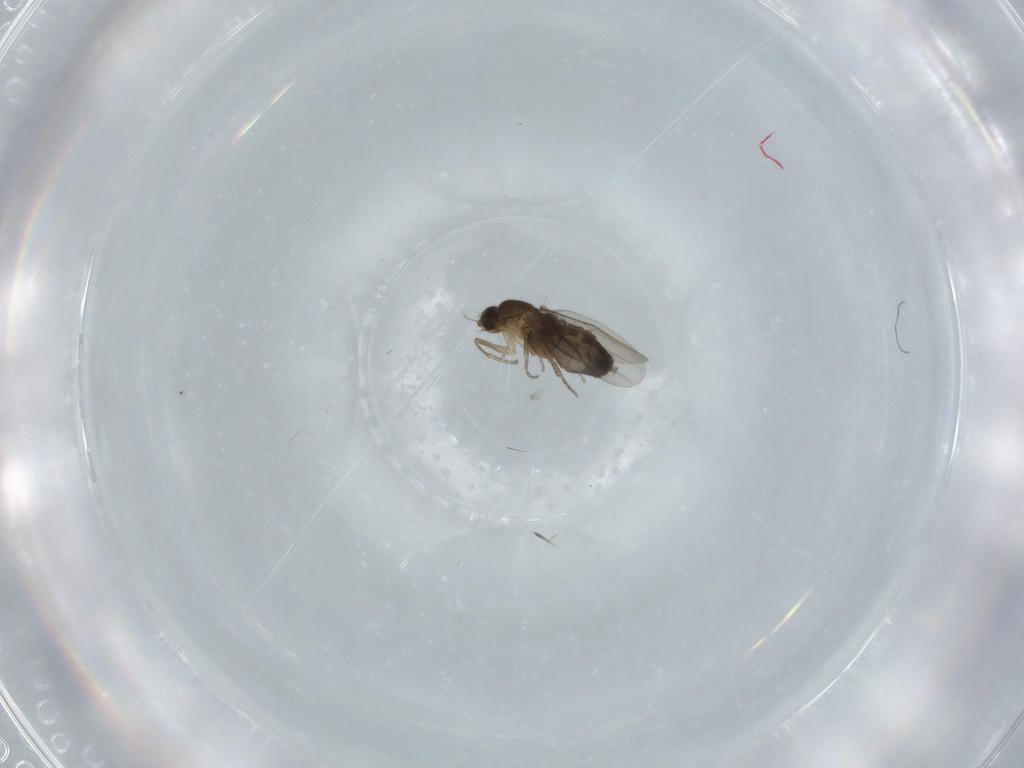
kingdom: Animalia
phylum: Arthropoda
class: Insecta
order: Diptera
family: Phoridae
